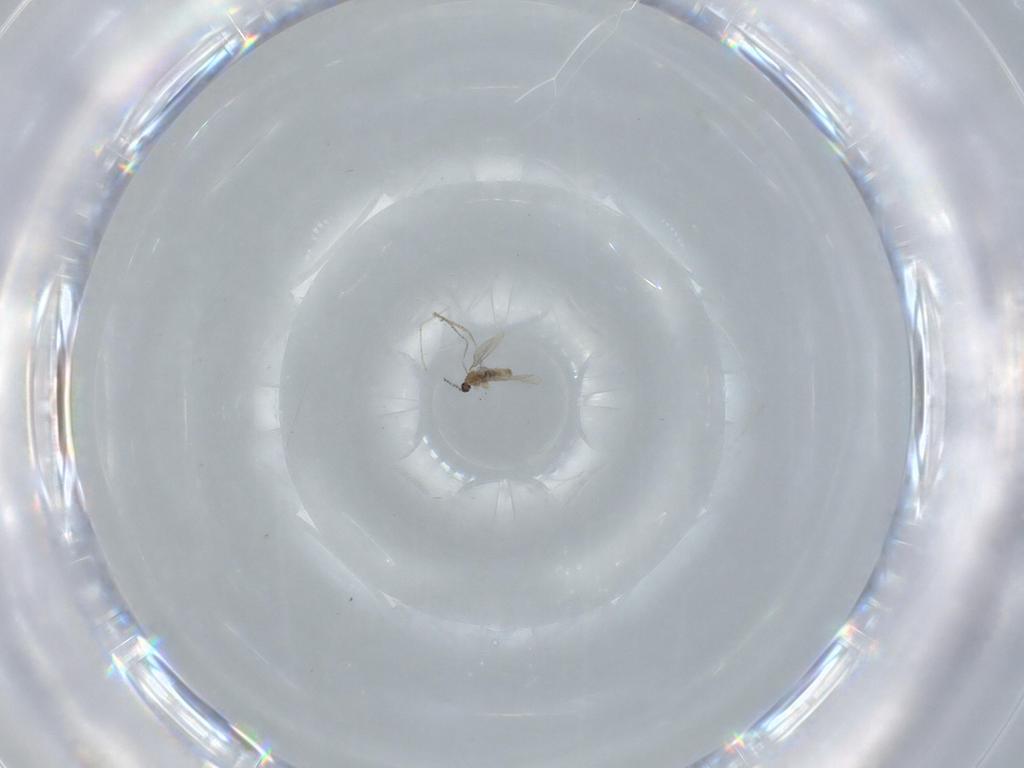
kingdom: Animalia
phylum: Arthropoda
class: Insecta
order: Diptera
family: Cecidomyiidae
